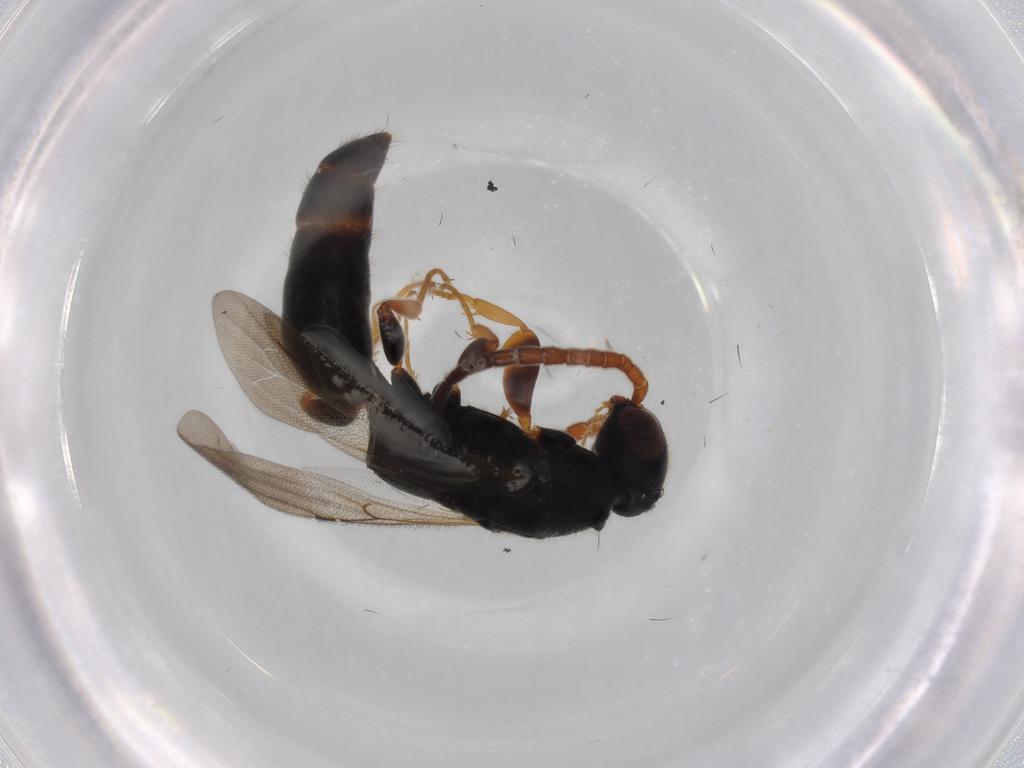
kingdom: Animalia
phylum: Arthropoda
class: Insecta
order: Hymenoptera
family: Bethylidae
